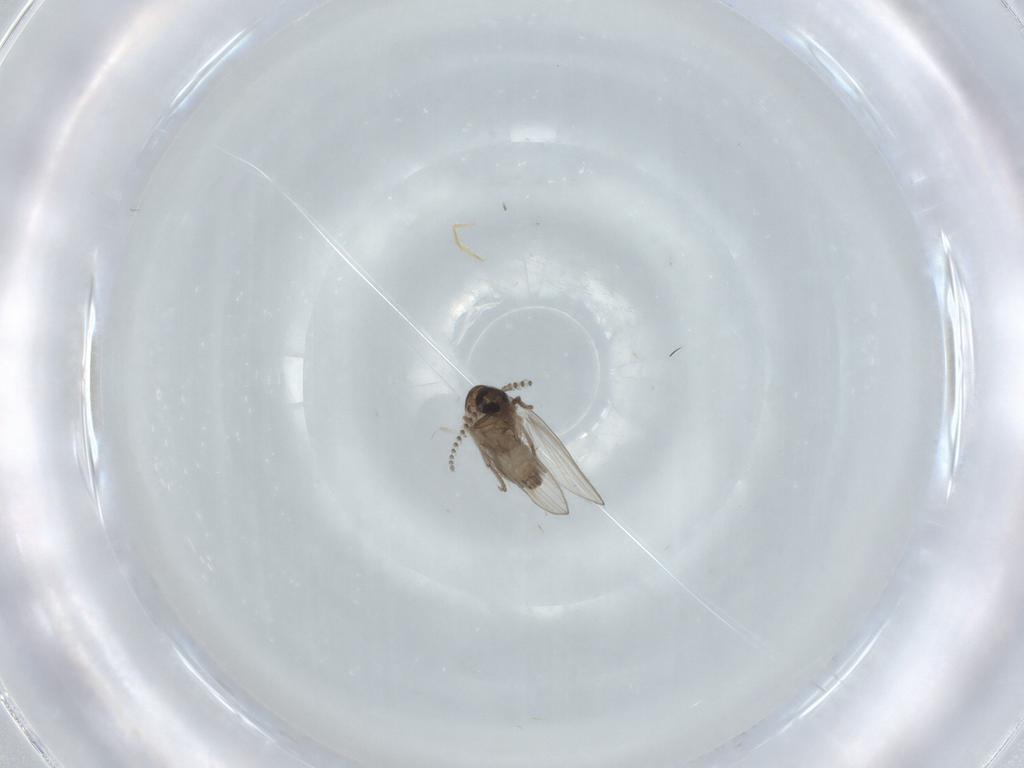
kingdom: Animalia
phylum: Arthropoda
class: Insecta
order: Diptera
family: Psychodidae
